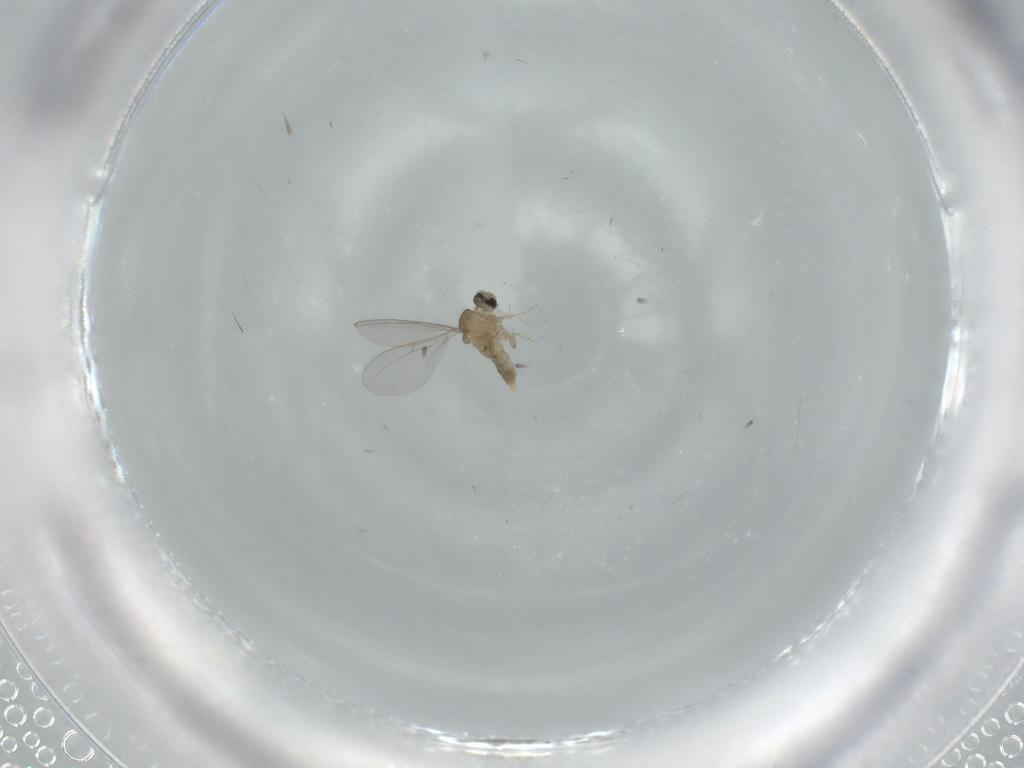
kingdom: Animalia
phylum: Arthropoda
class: Insecta
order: Diptera
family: Cecidomyiidae
